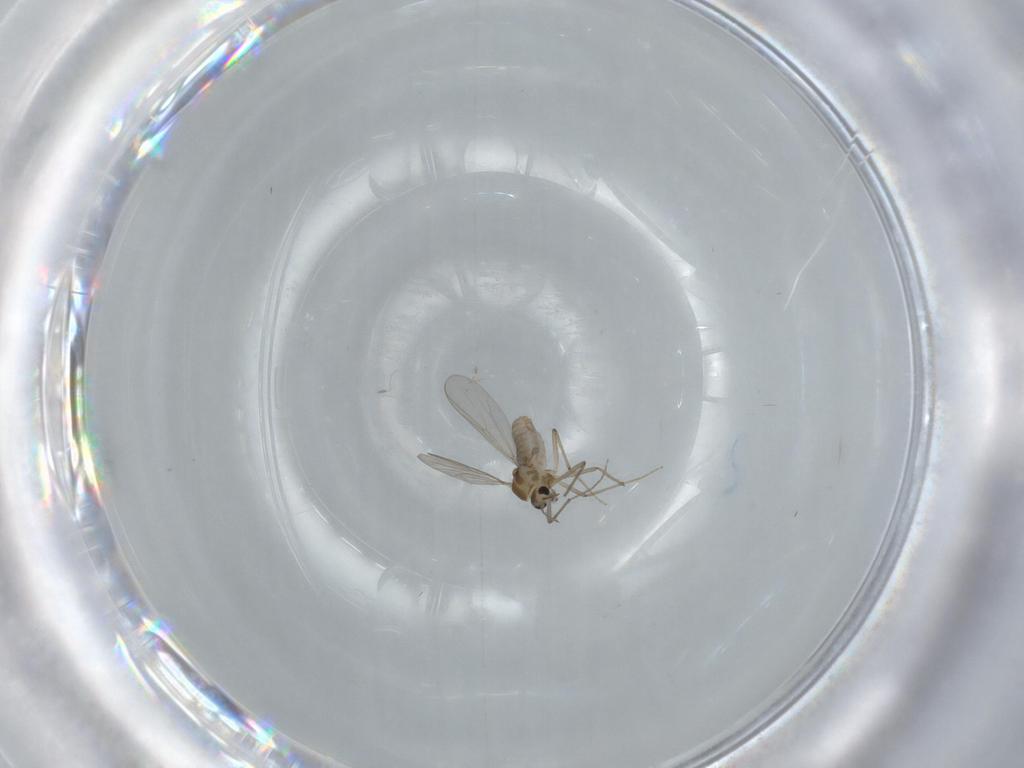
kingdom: Animalia
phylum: Arthropoda
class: Insecta
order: Diptera
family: Chironomidae
